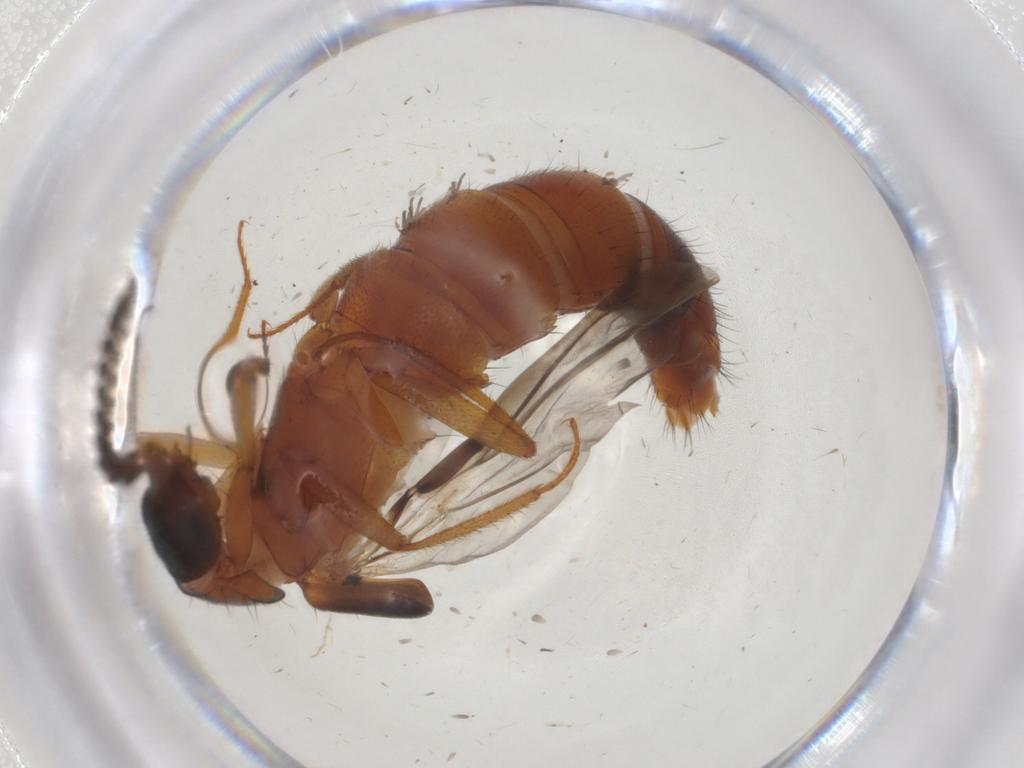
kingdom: Animalia
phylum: Arthropoda
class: Insecta
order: Coleoptera
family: Staphylinidae
